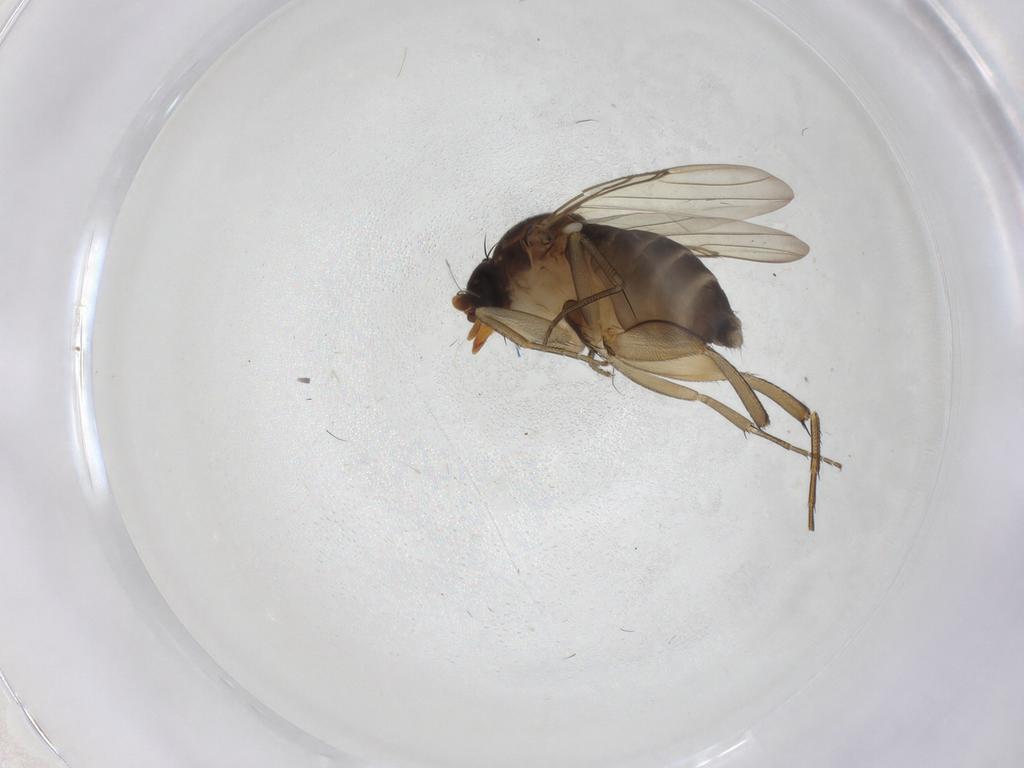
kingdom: Animalia
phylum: Arthropoda
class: Insecta
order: Diptera
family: Phoridae
